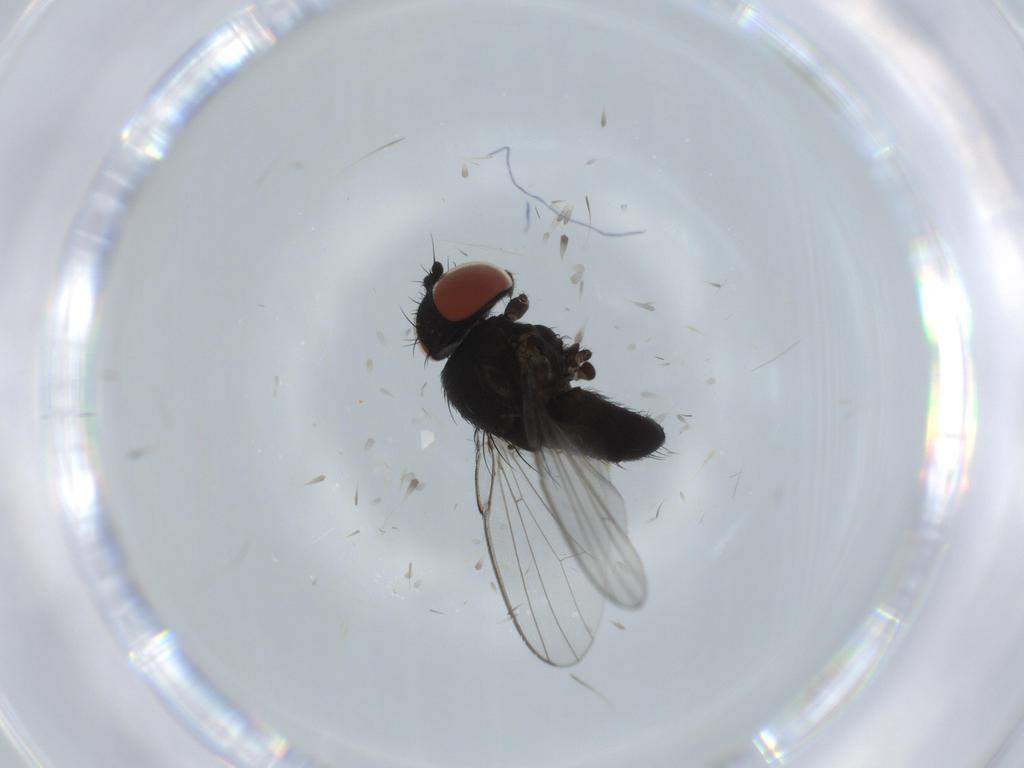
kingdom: Animalia
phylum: Arthropoda
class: Insecta
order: Diptera
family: Milichiidae
